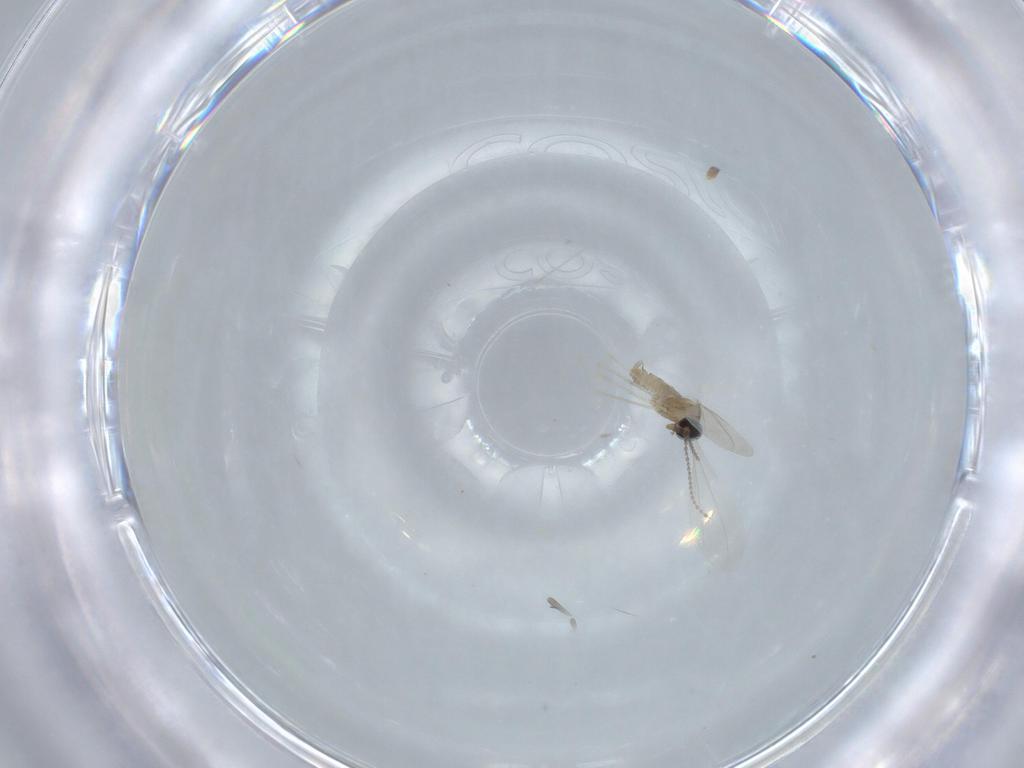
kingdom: Animalia
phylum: Arthropoda
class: Insecta
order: Diptera
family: Cecidomyiidae
